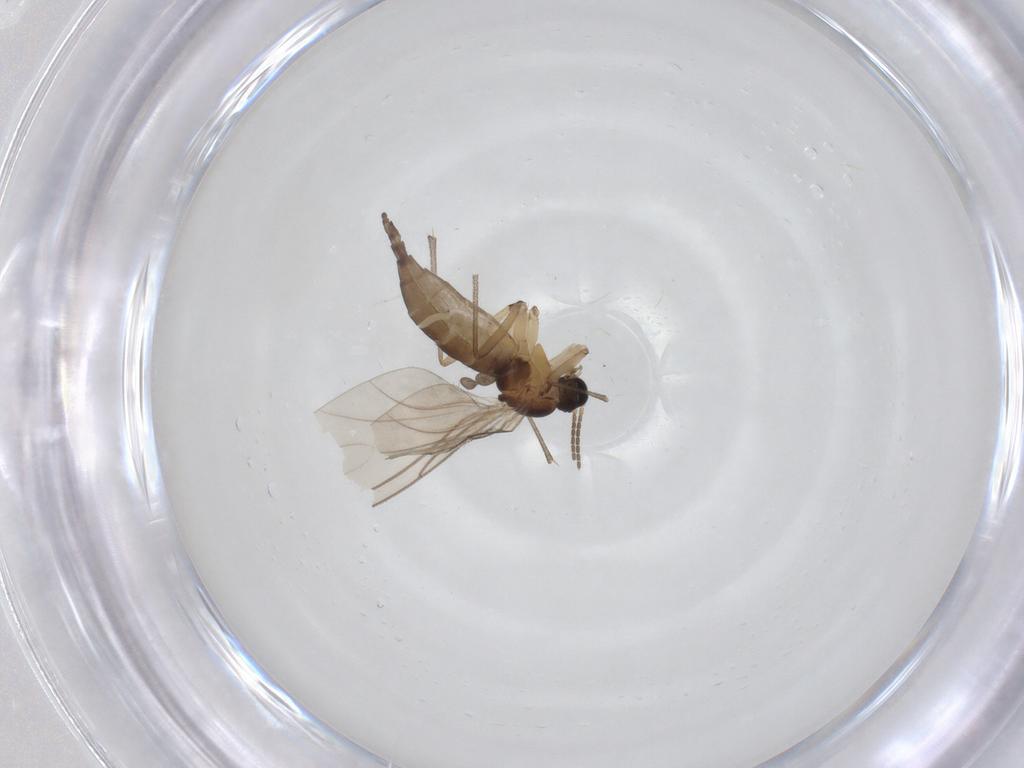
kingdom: Animalia
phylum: Arthropoda
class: Insecta
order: Diptera
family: Sciaridae
